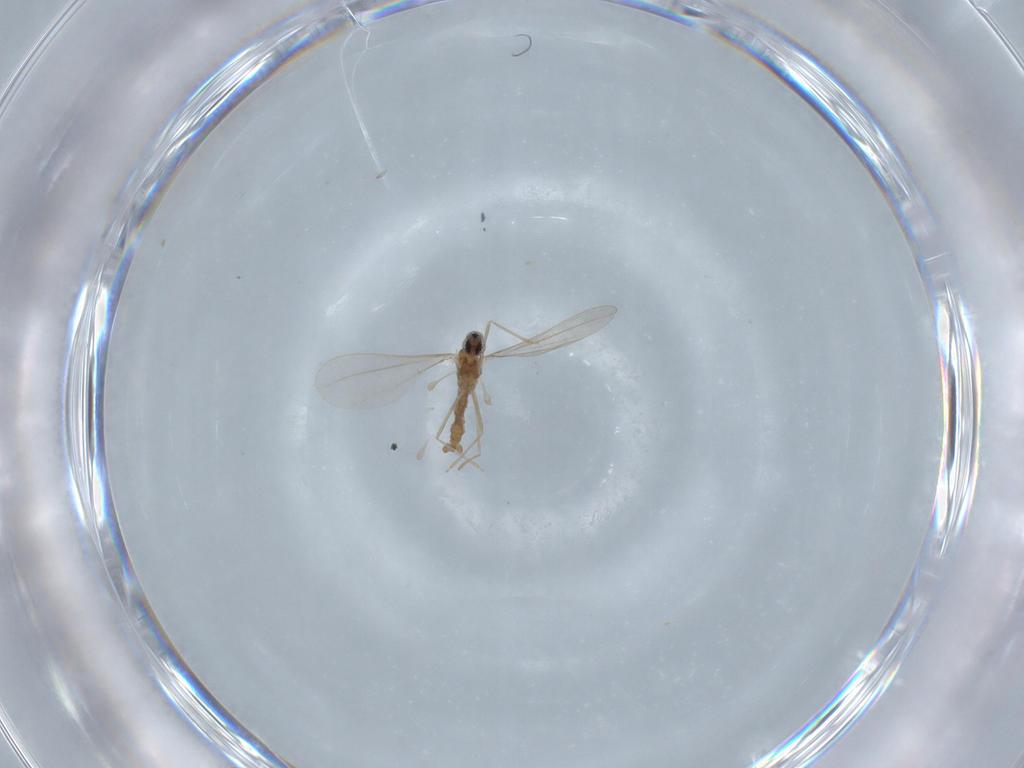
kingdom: Animalia
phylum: Arthropoda
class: Insecta
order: Diptera
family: Cecidomyiidae
